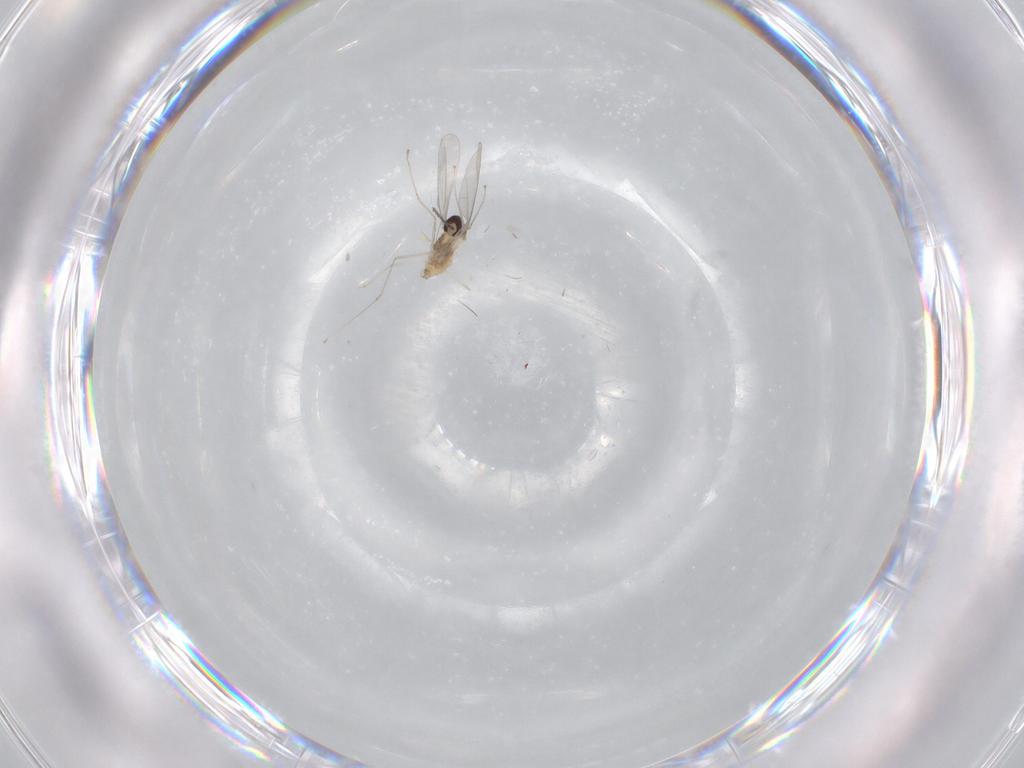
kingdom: Animalia
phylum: Arthropoda
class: Insecta
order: Diptera
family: Cecidomyiidae
